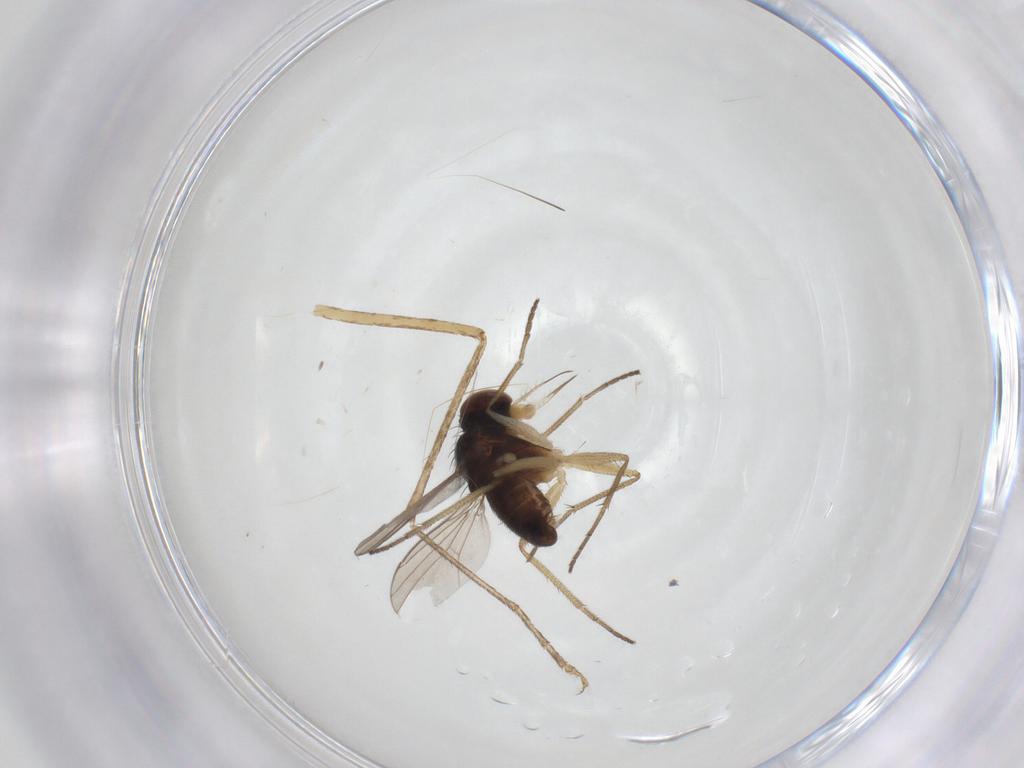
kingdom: Animalia
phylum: Arthropoda
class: Insecta
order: Diptera
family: Dolichopodidae
